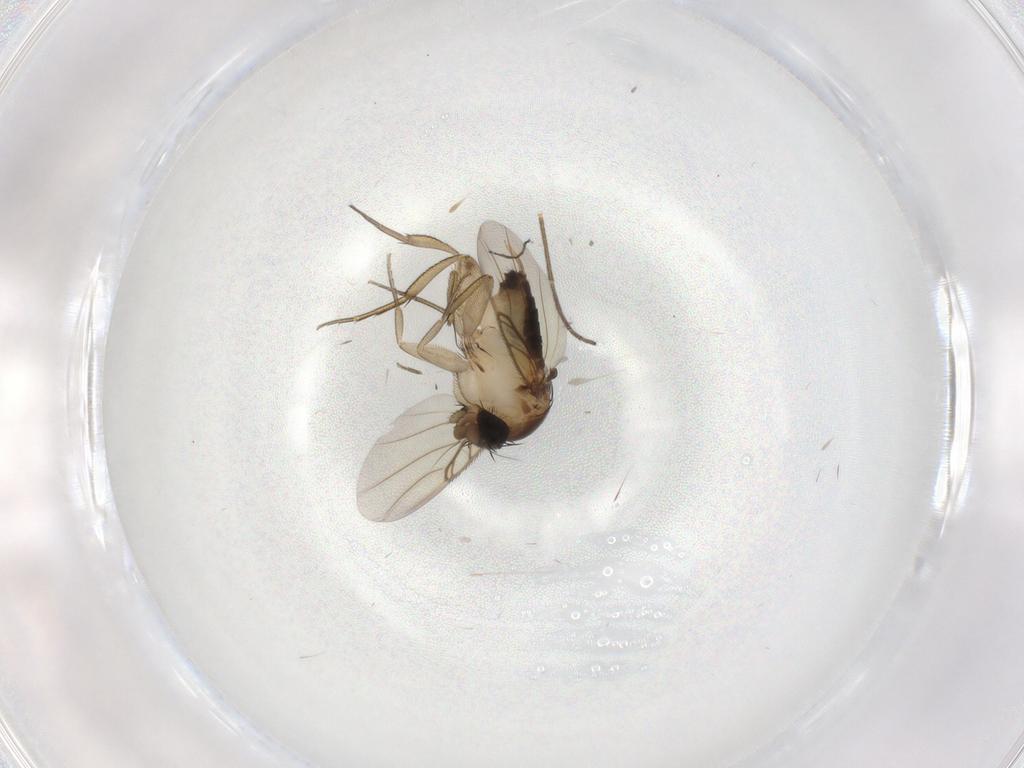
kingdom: Animalia
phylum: Arthropoda
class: Insecta
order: Diptera
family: Phoridae
